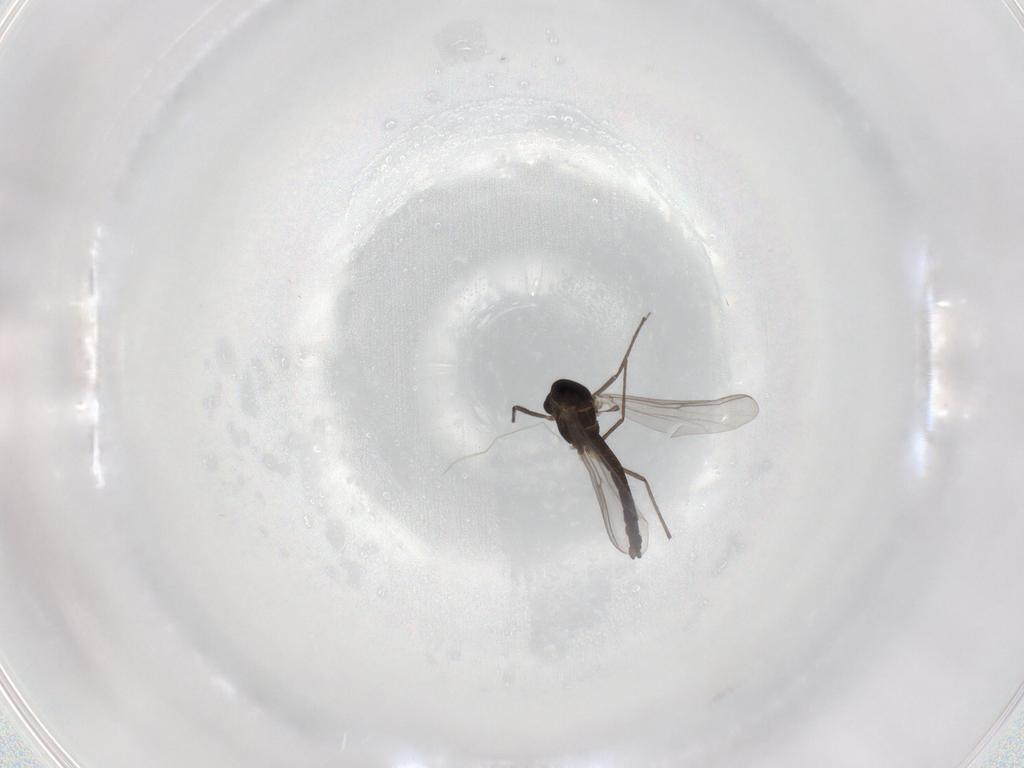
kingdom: Animalia
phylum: Arthropoda
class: Insecta
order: Diptera
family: Chironomidae
